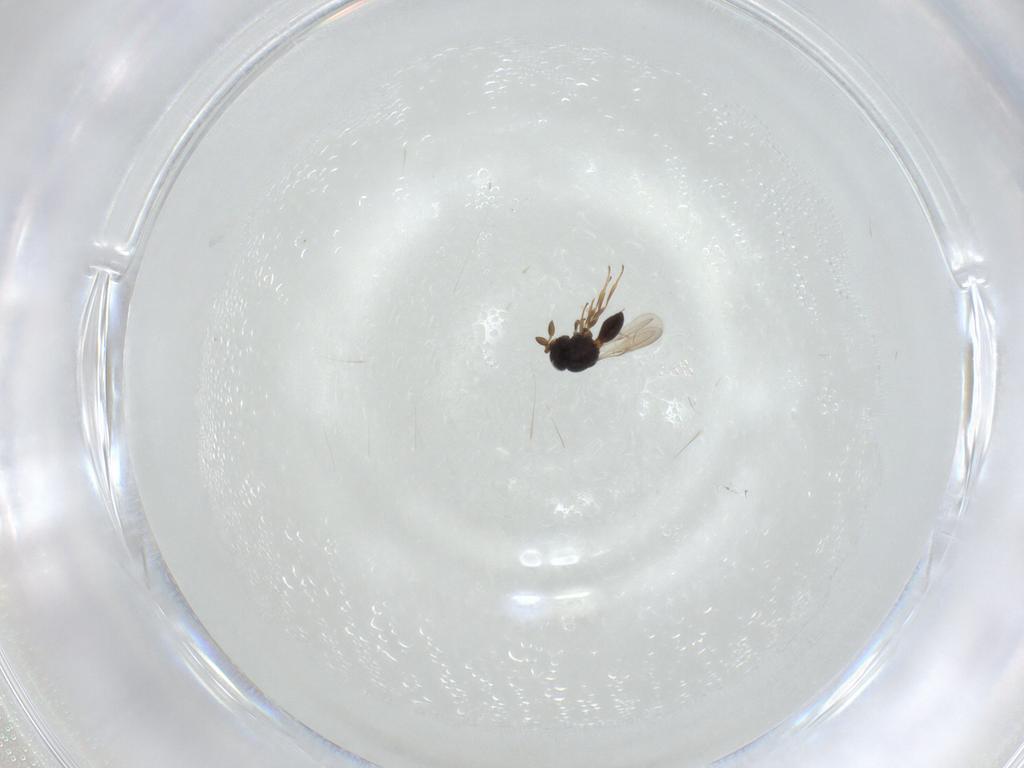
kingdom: Animalia
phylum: Arthropoda
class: Insecta
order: Hymenoptera
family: Scelionidae
